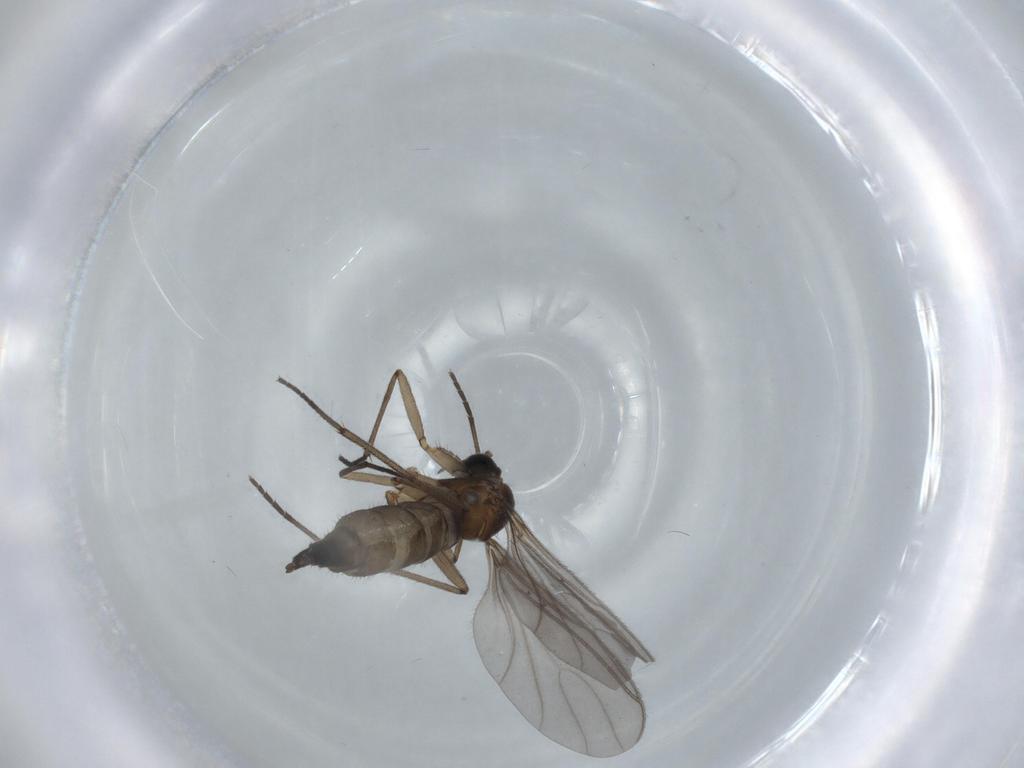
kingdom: Animalia
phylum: Arthropoda
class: Insecta
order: Diptera
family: Sciaridae
